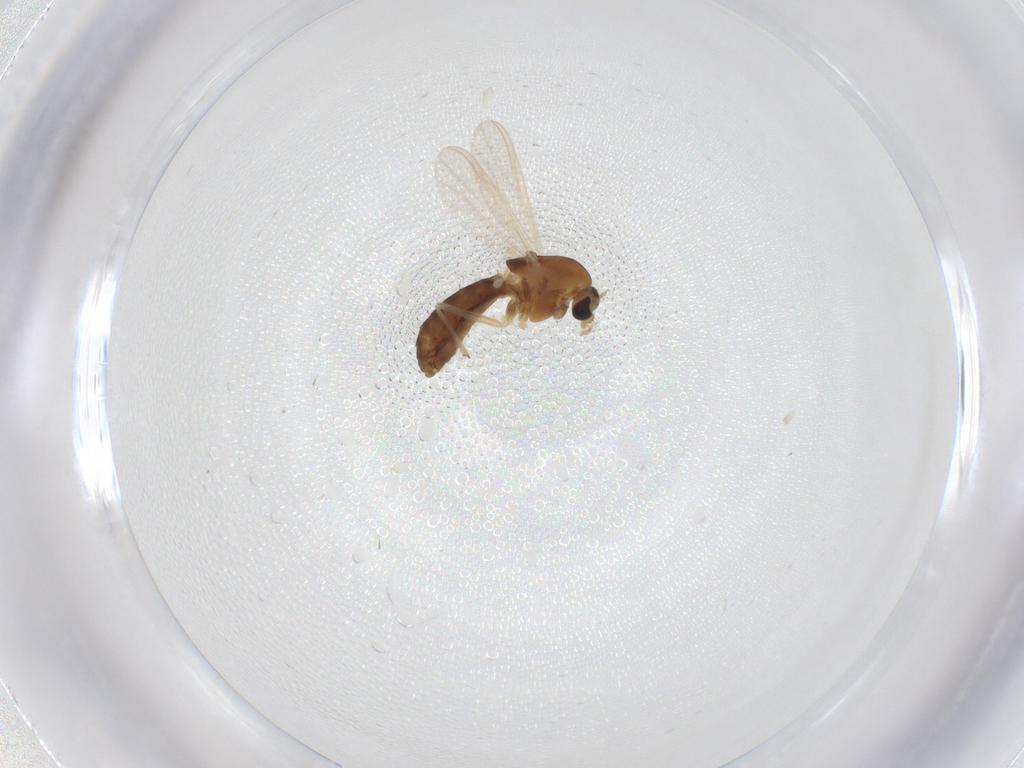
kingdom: Animalia
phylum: Arthropoda
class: Insecta
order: Diptera
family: Chironomidae
